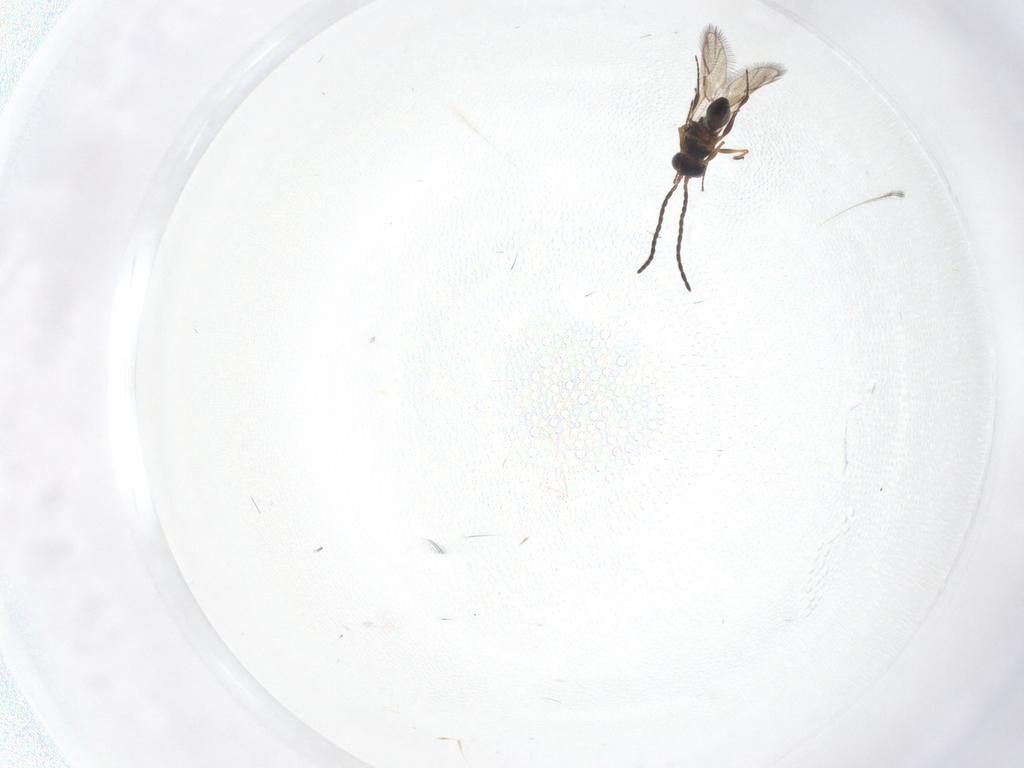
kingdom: Animalia
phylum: Arthropoda
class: Insecta
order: Hymenoptera
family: Figitidae
